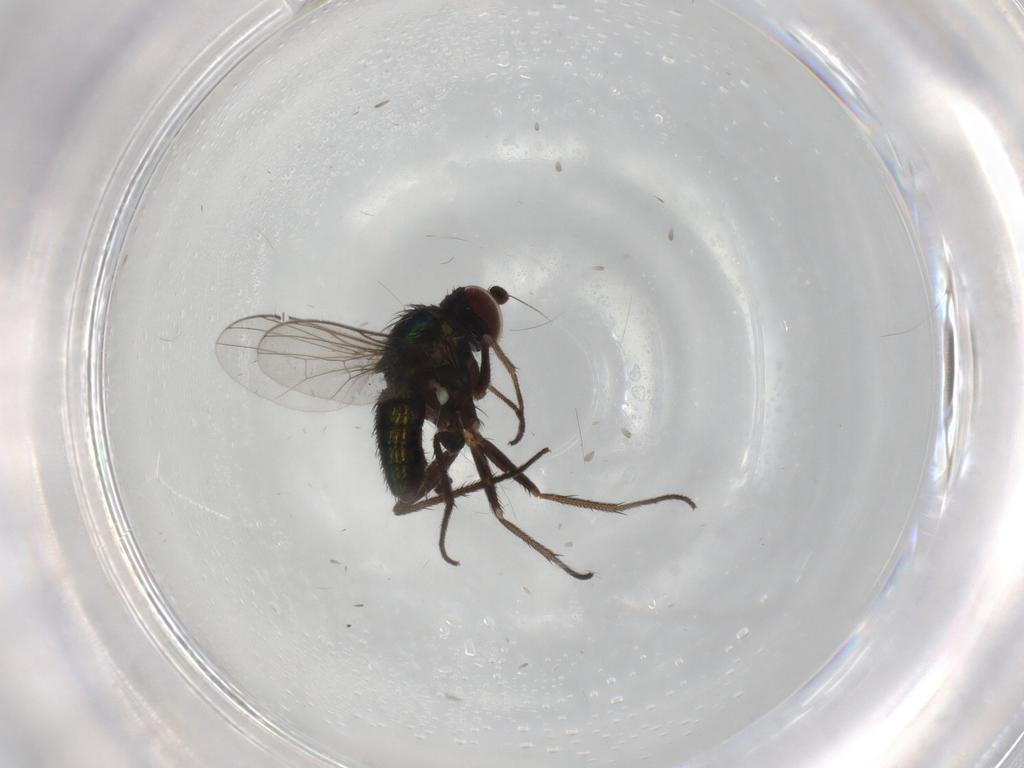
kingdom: Animalia
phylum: Arthropoda
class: Insecta
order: Diptera
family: Dolichopodidae
